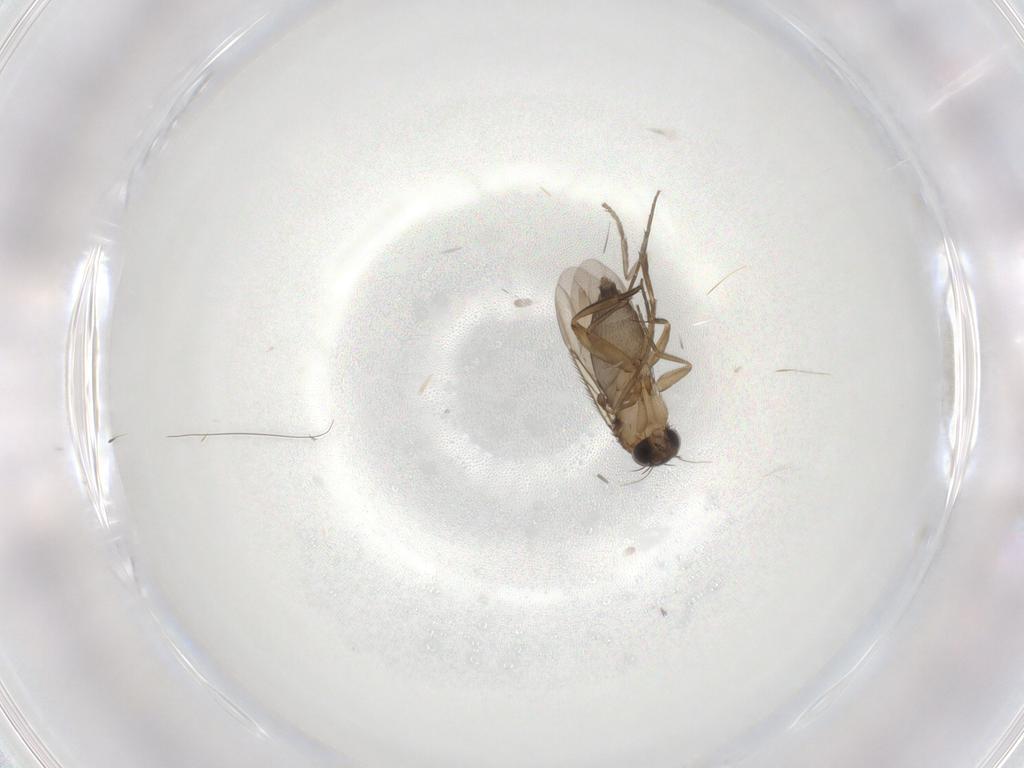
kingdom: Animalia
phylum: Arthropoda
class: Insecta
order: Diptera
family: Phoridae
